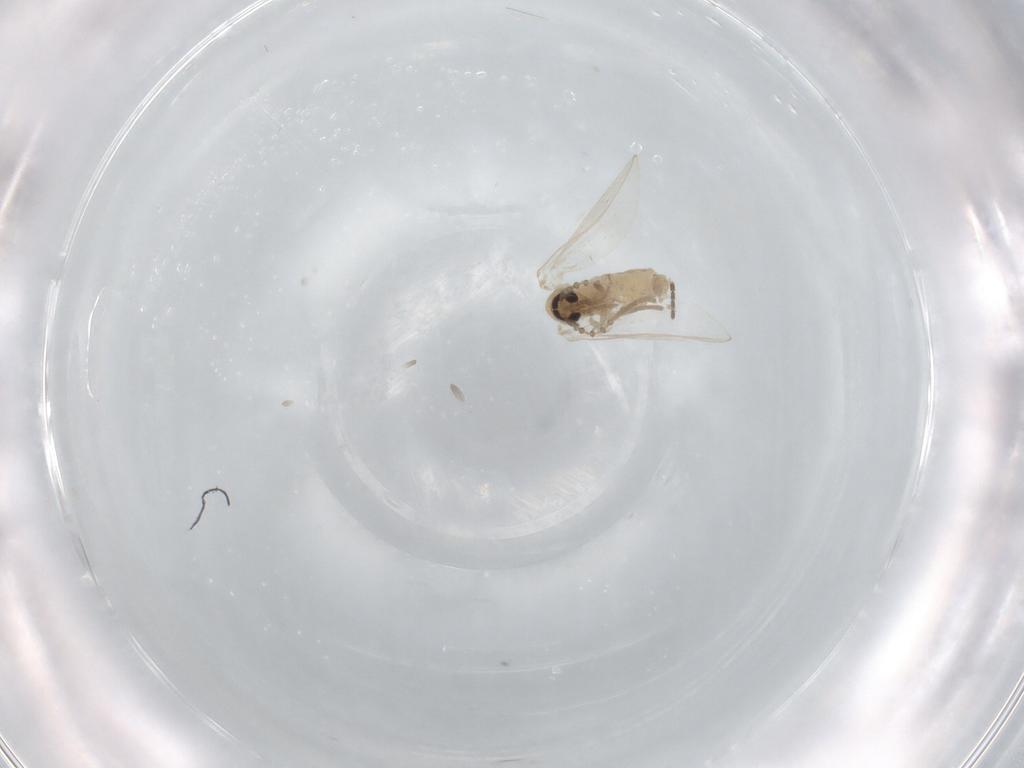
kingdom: Animalia
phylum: Arthropoda
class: Insecta
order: Diptera
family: Sciaridae
